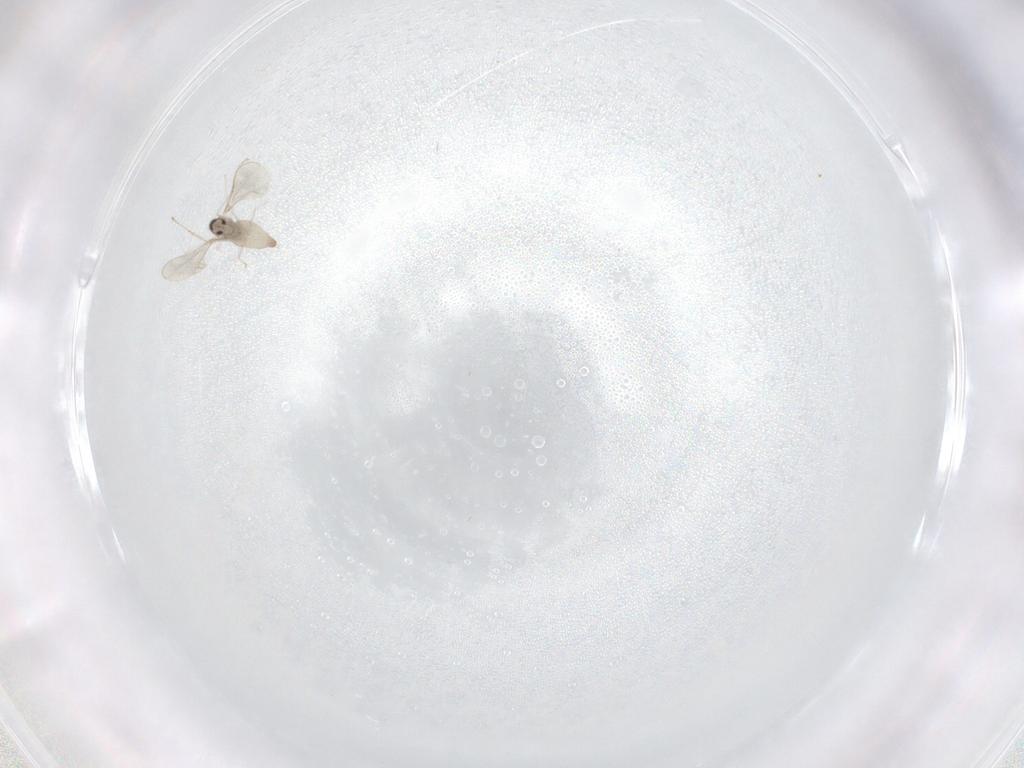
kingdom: Animalia
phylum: Arthropoda
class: Insecta
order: Diptera
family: Cecidomyiidae
